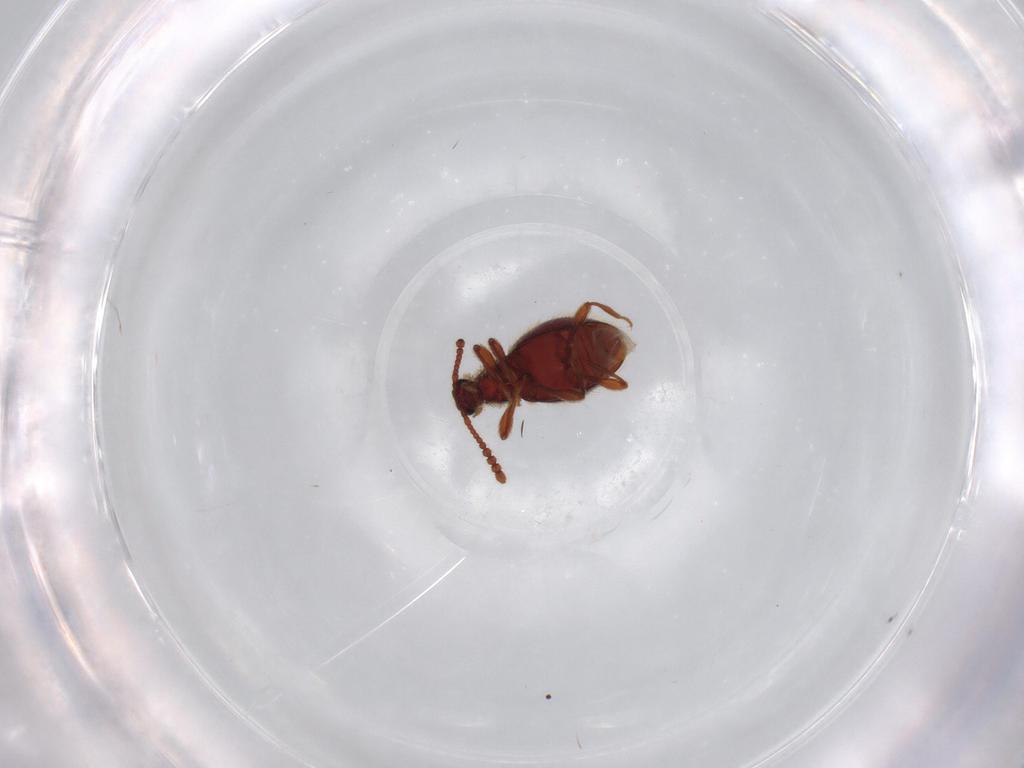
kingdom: Animalia
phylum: Arthropoda
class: Insecta
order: Coleoptera
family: Staphylinidae
